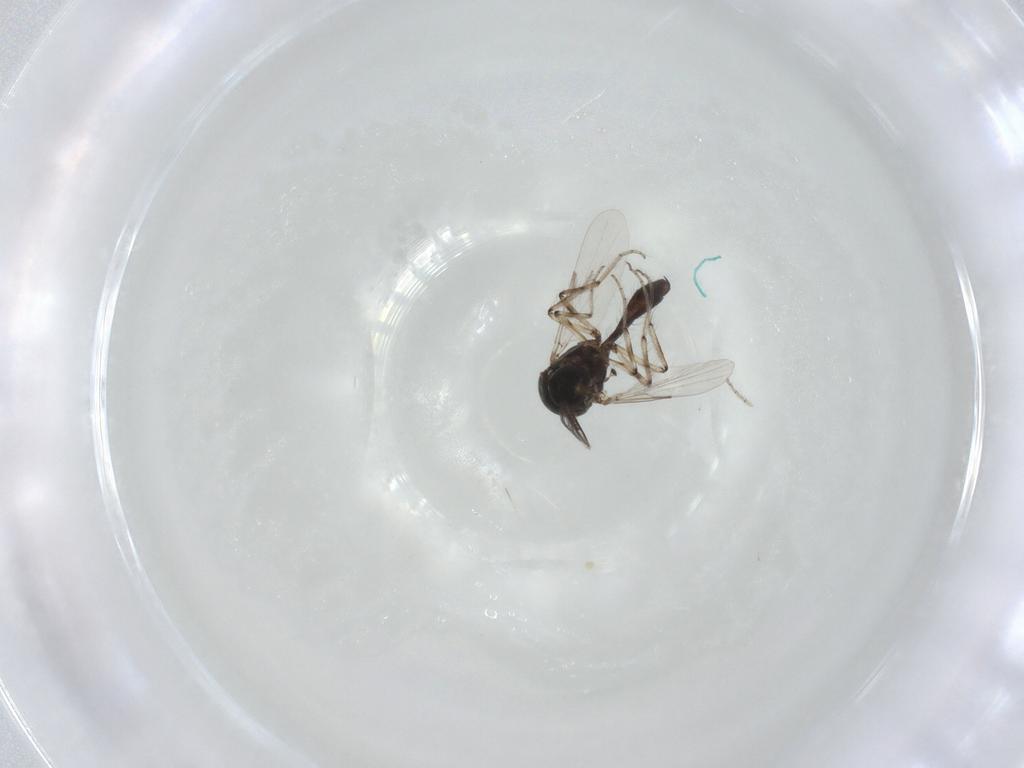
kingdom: Animalia
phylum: Arthropoda
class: Insecta
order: Diptera
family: Ceratopogonidae
